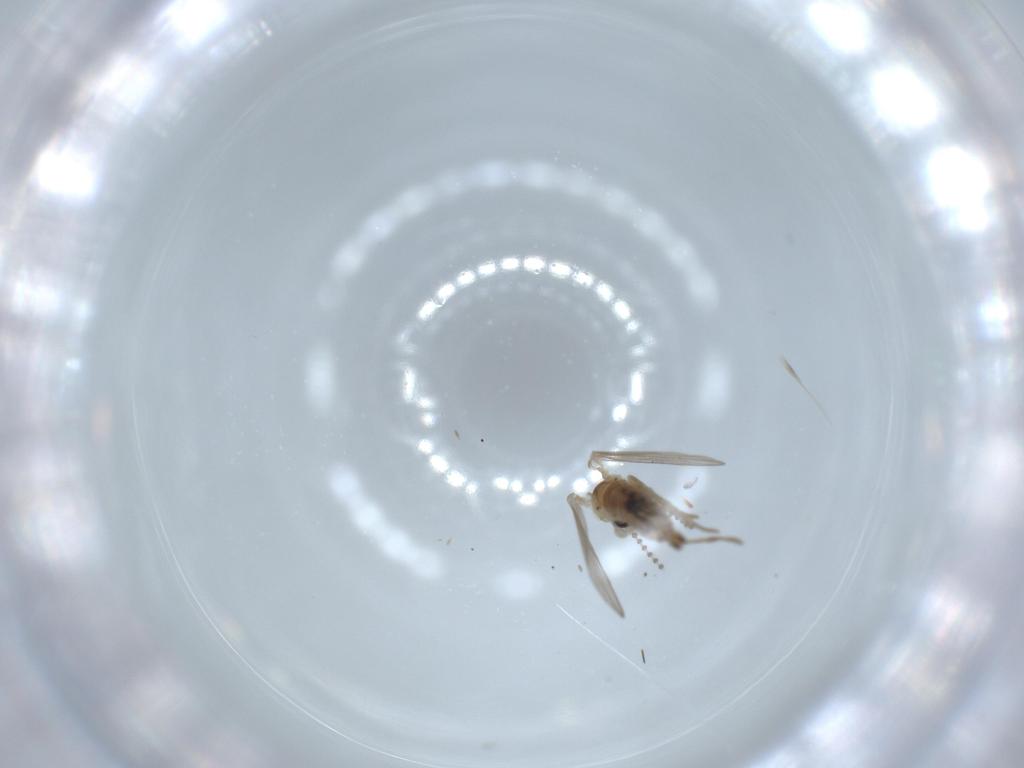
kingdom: Animalia
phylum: Arthropoda
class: Insecta
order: Diptera
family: Psychodidae
